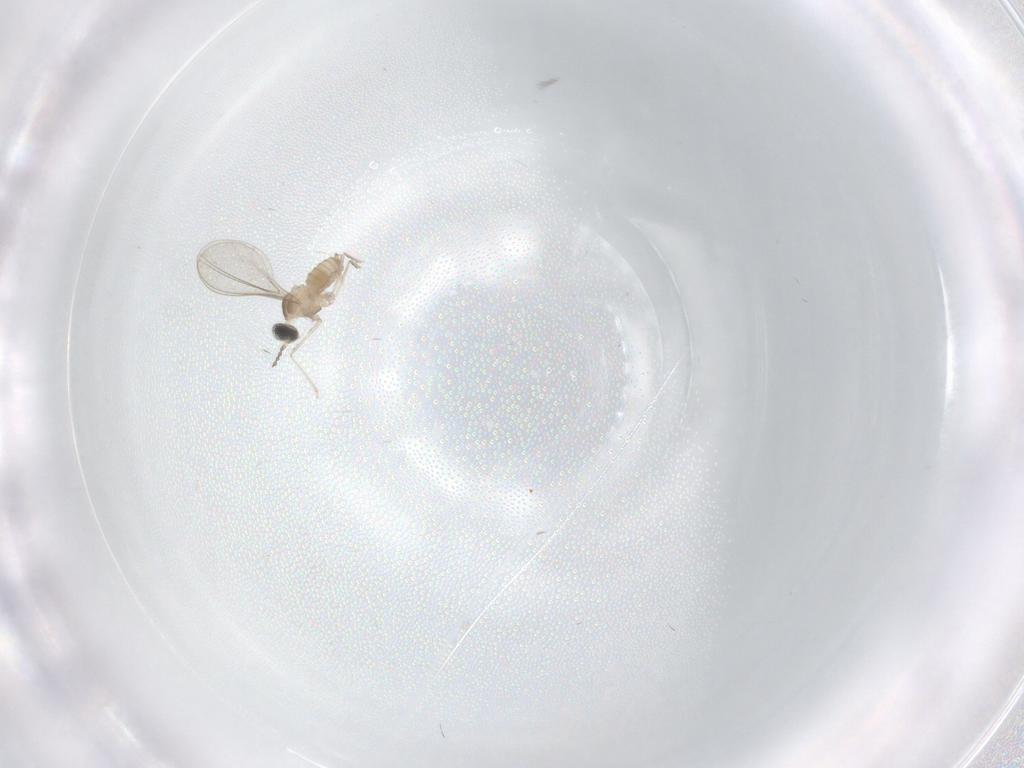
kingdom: Animalia
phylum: Arthropoda
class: Insecta
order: Diptera
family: Cecidomyiidae
